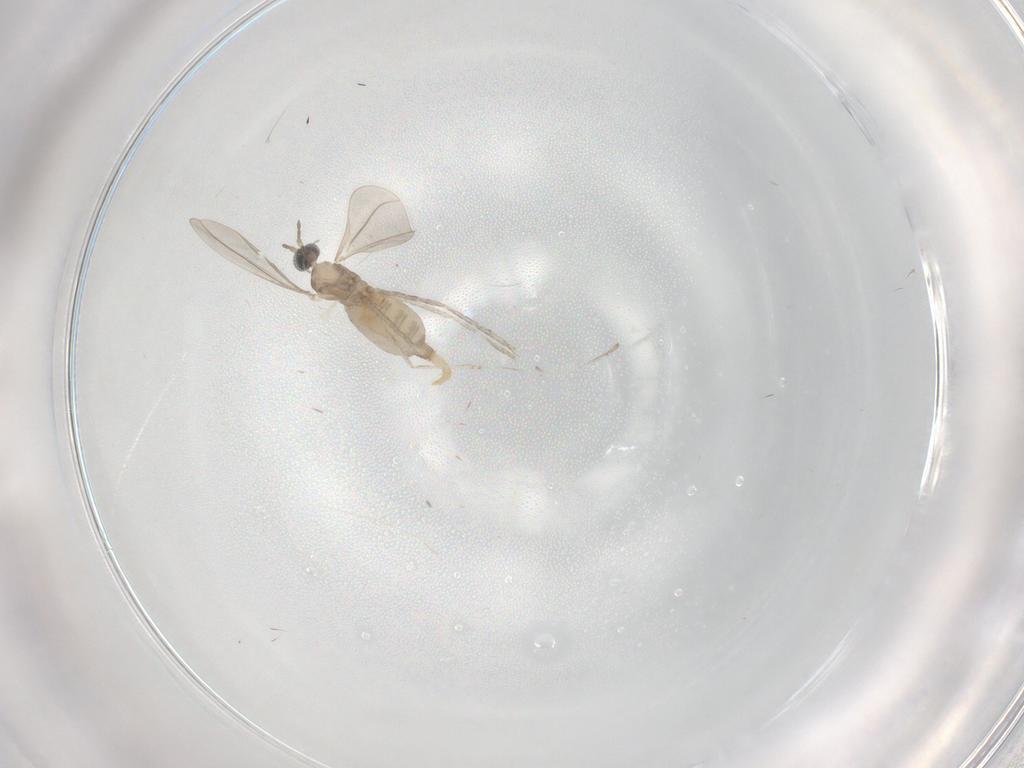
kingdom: Animalia
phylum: Arthropoda
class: Insecta
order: Diptera
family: Cecidomyiidae
